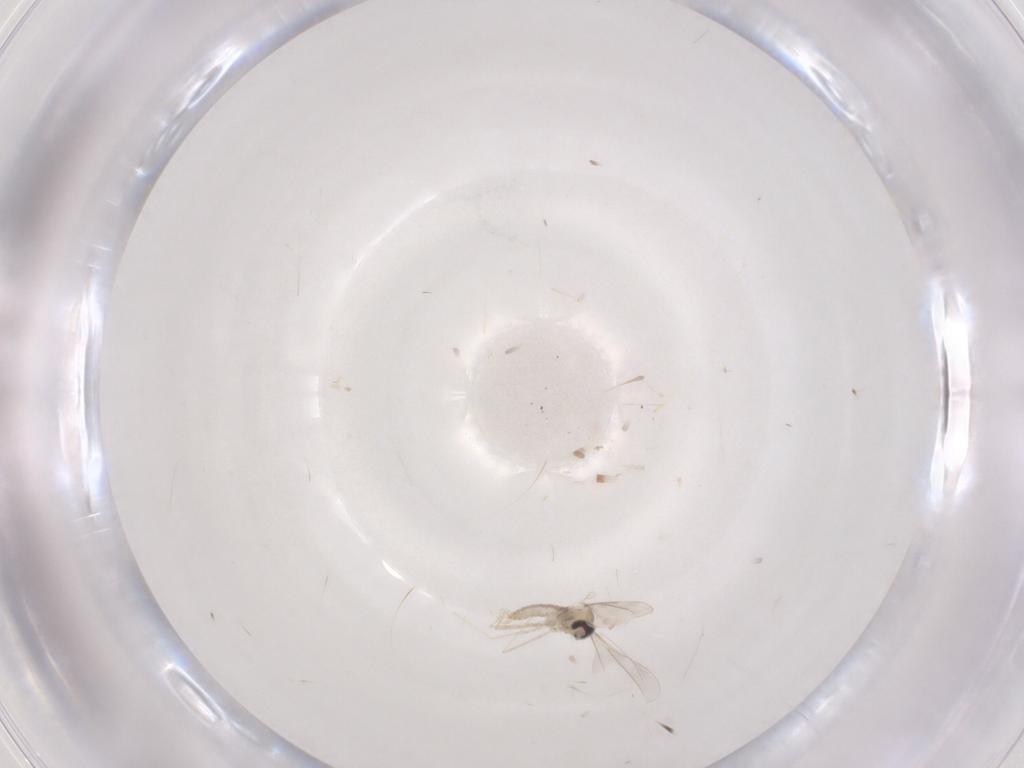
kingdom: Animalia
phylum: Arthropoda
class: Insecta
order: Diptera
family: Cecidomyiidae
